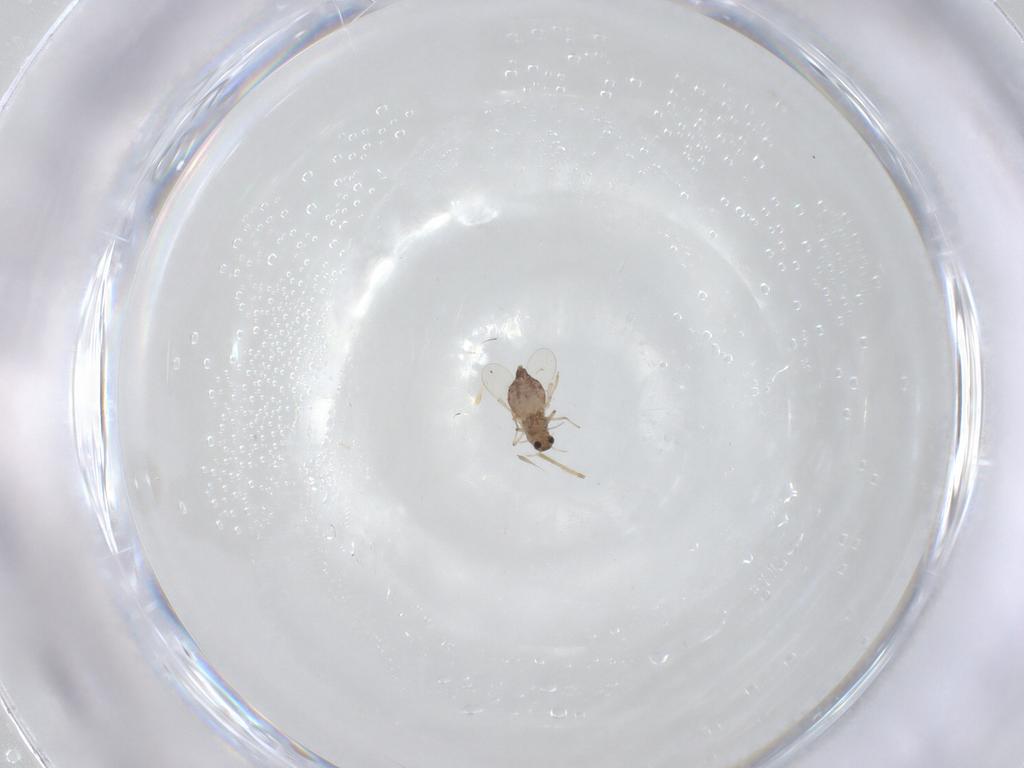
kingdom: Animalia
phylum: Arthropoda
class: Insecta
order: Diptera
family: Chironomidae
